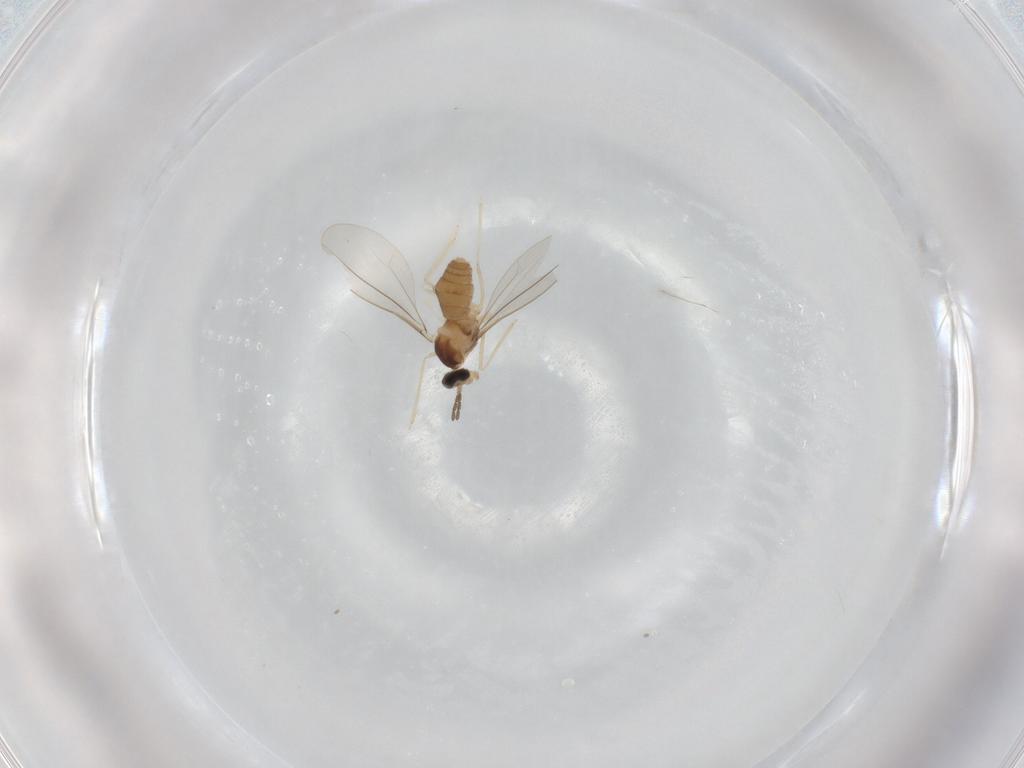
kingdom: Animalia
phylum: Arthropoda
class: Insecta
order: Diptera
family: Cecidomyiidae
